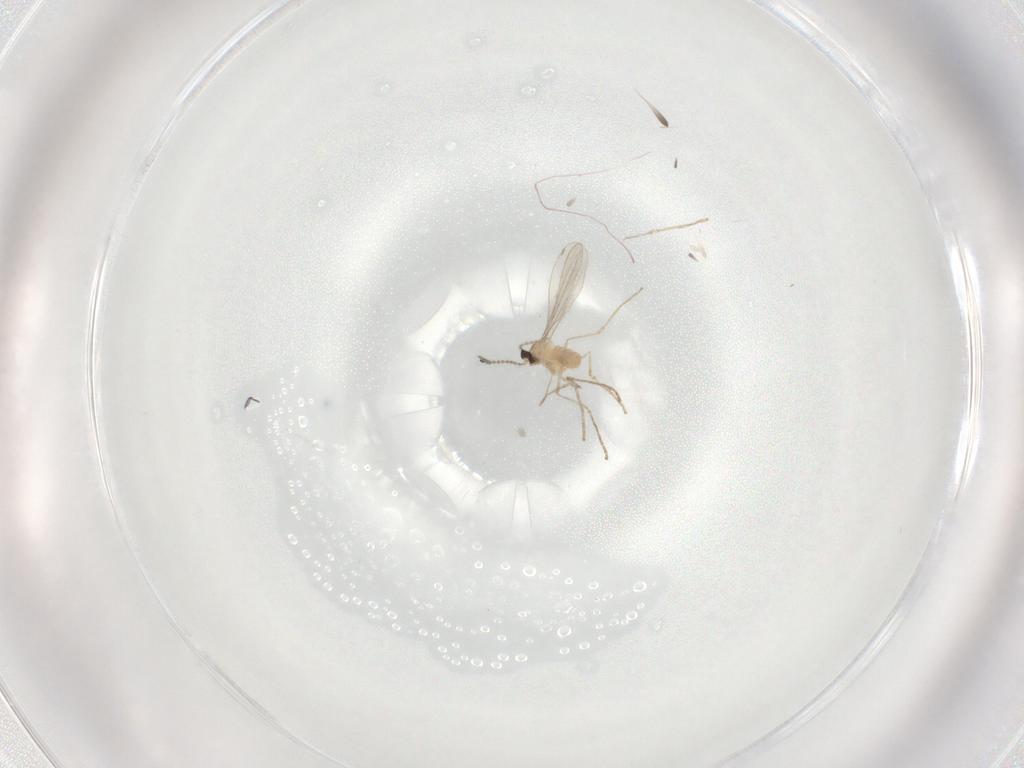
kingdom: Animalia
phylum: Arthropoda
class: Insecta
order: Diptera
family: Cecidomyiidae
